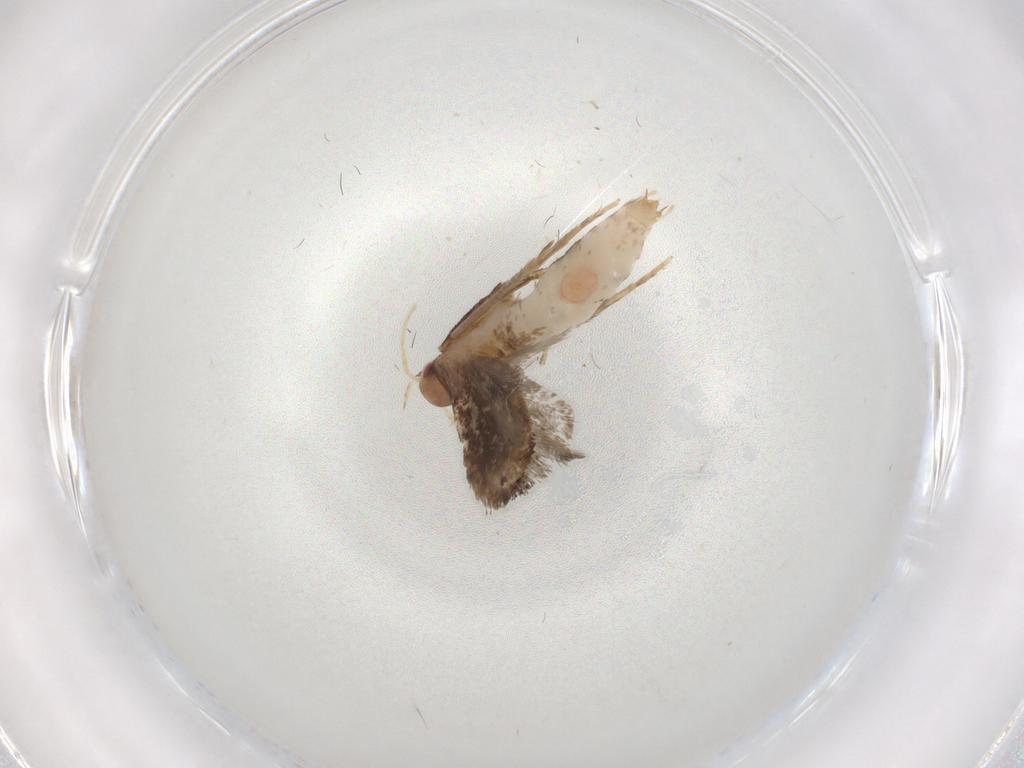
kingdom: Animalia
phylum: Arthropoda
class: Insecta
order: Lepidoptera
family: Gelechiidae
